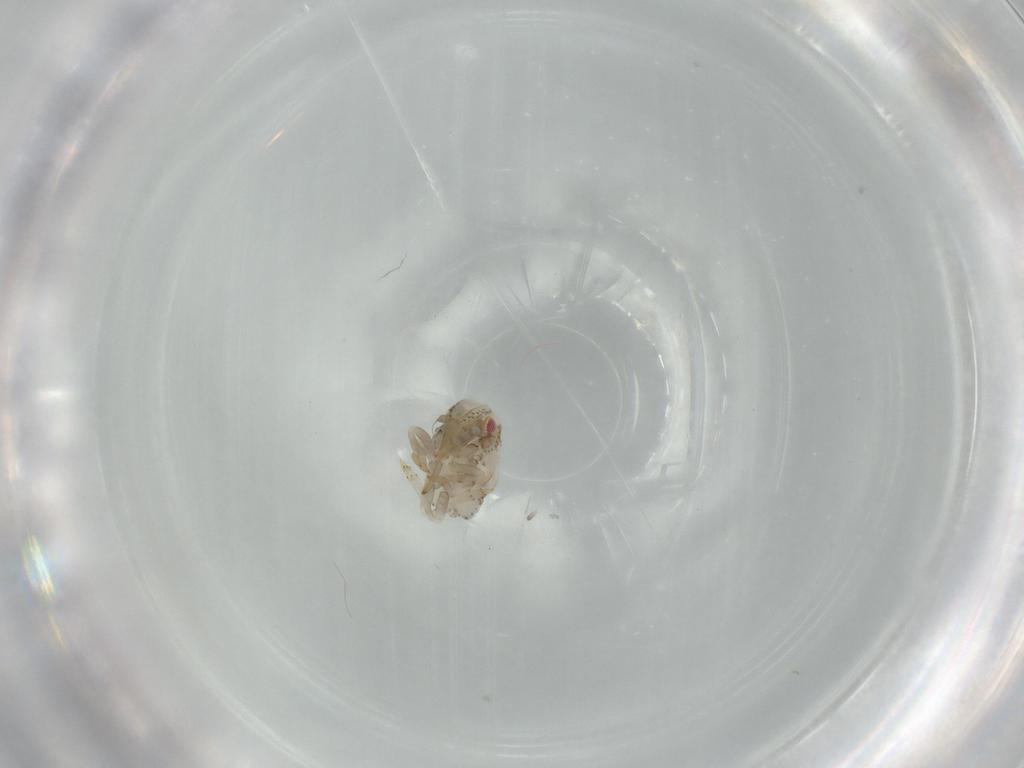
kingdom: Animalia
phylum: Arthropoda
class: Insecta
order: Hemiptera
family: Acanaloniidae
